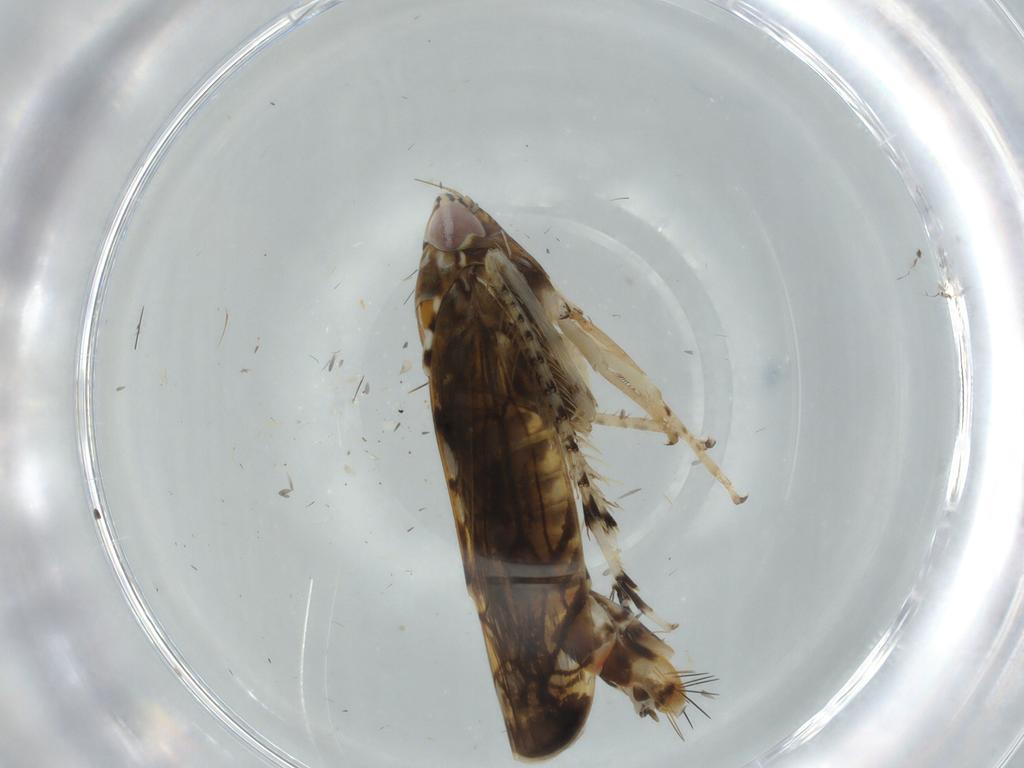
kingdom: Animalia
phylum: Arthropoda
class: Insecta
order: Hemiptera
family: Cicadellidae
